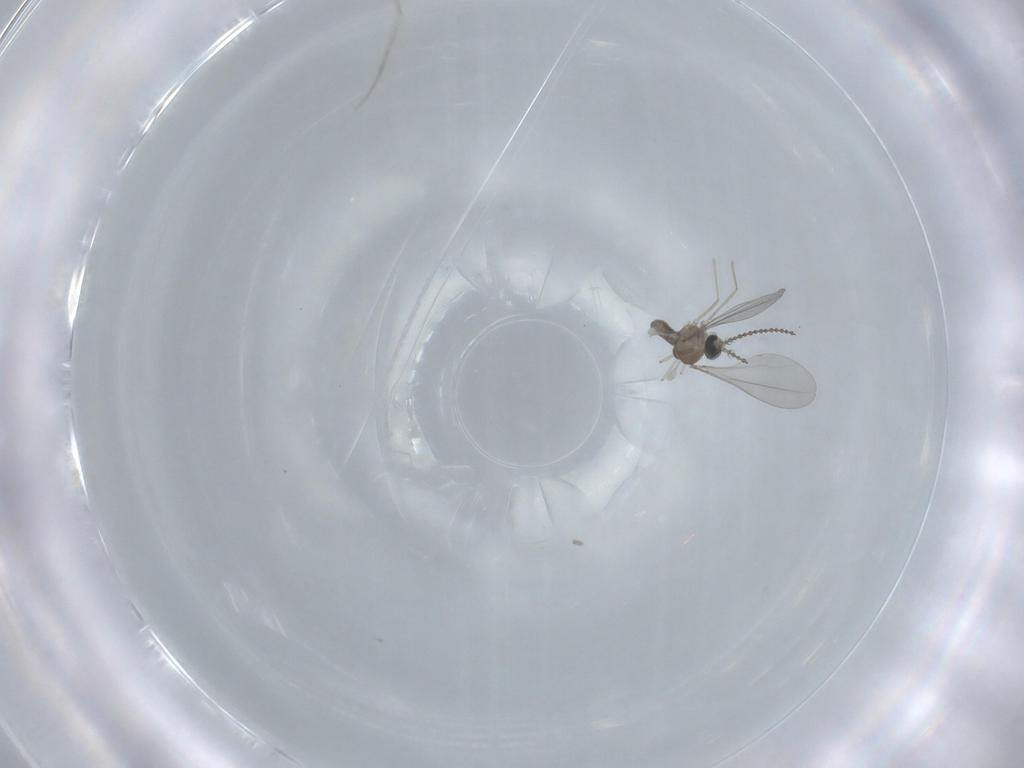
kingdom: Animalia
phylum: Arthropoda
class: Insecta
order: Diptera
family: Cecidomyiidae
